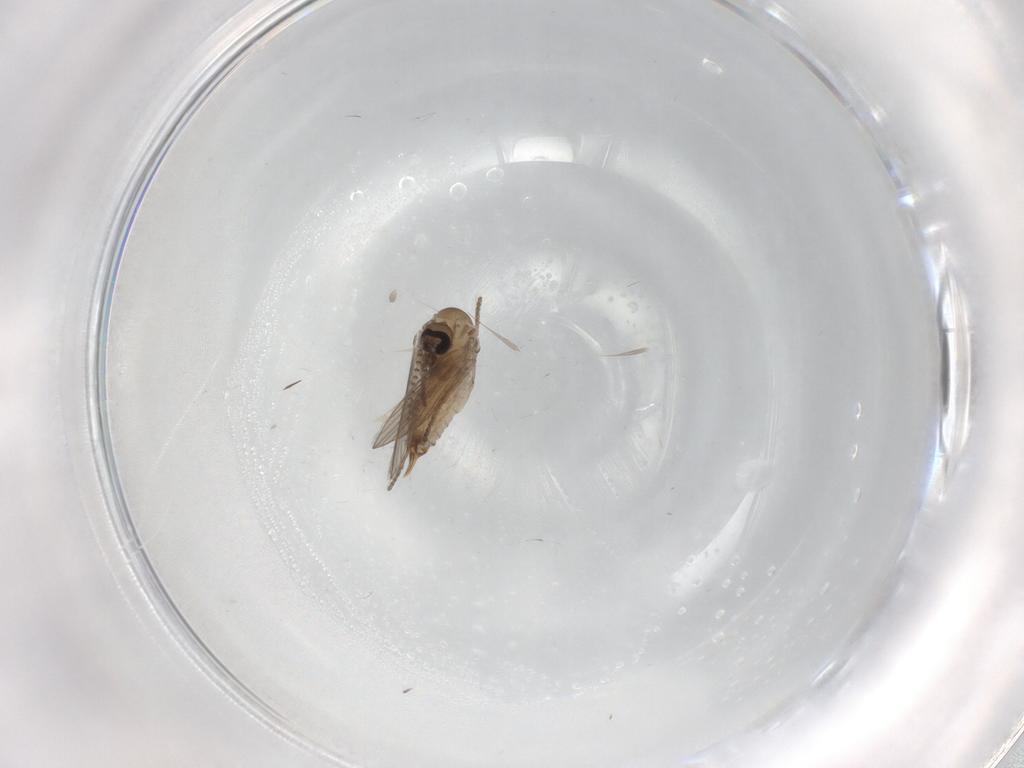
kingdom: Animalia
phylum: Arthropoda
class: Insecta
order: Diptera
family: Psychodidae
